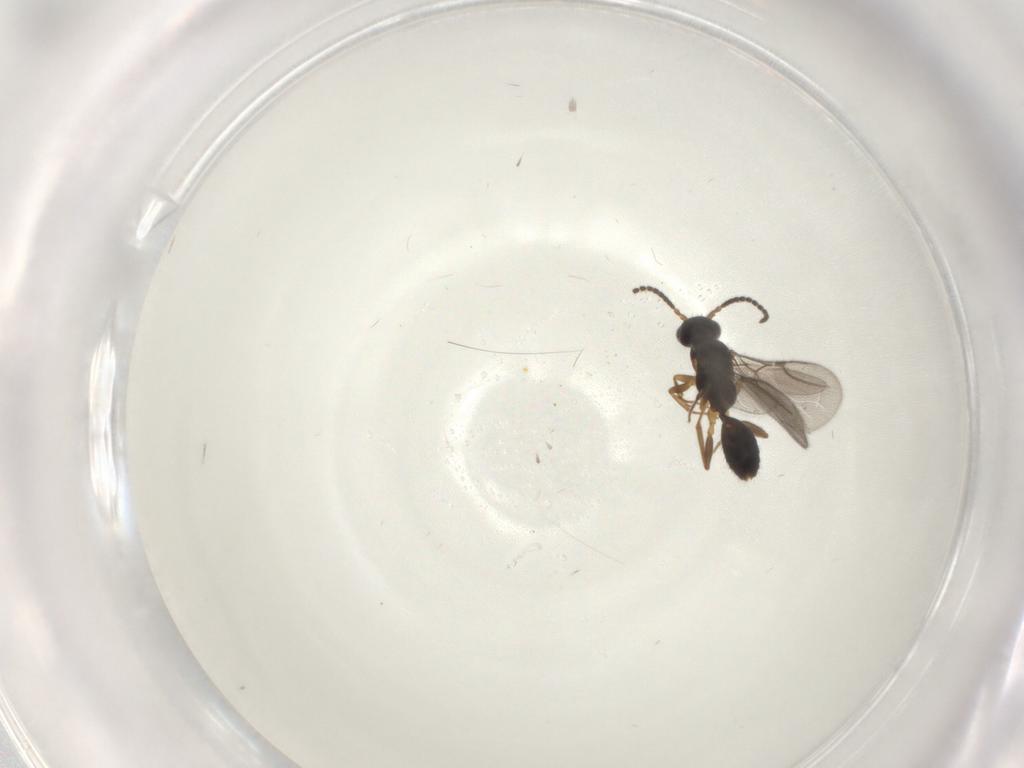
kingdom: Animalia
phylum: Arthropoda
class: Insecta
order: Hymenoptera
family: Bethylidae
